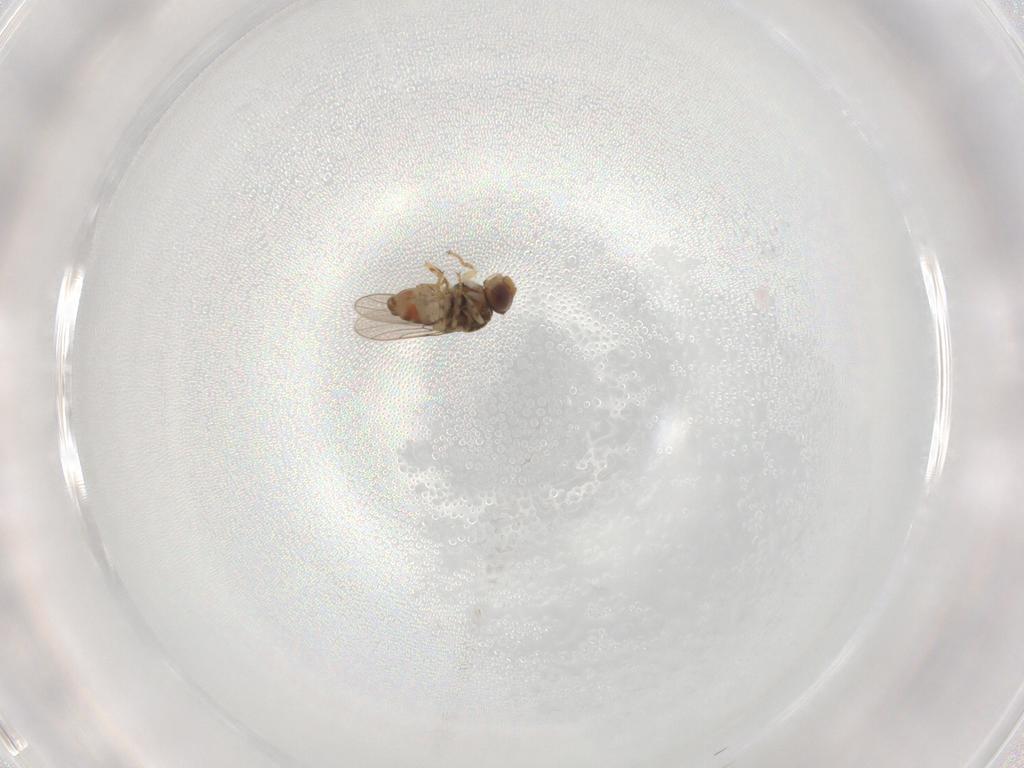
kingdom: Animalia
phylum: Arthropoda
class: Insecta
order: Diptera
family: Chloropidae
